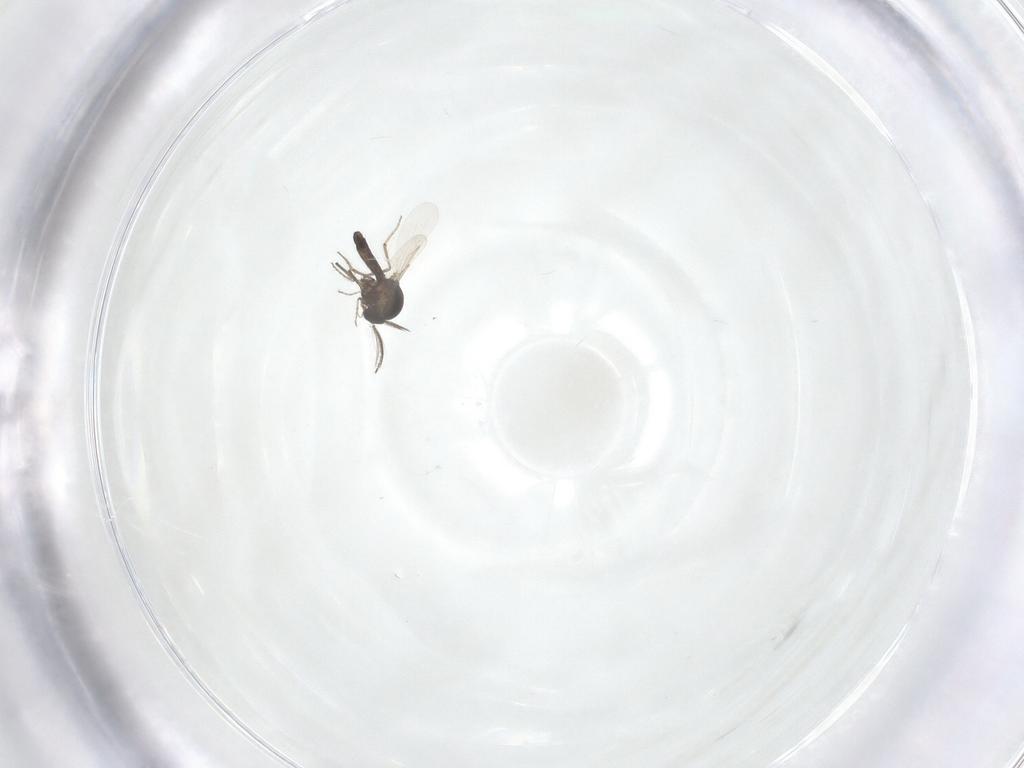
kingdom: Animalia
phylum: Arthropoda
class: Insecta
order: Diptera
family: Ceratopogonidae
